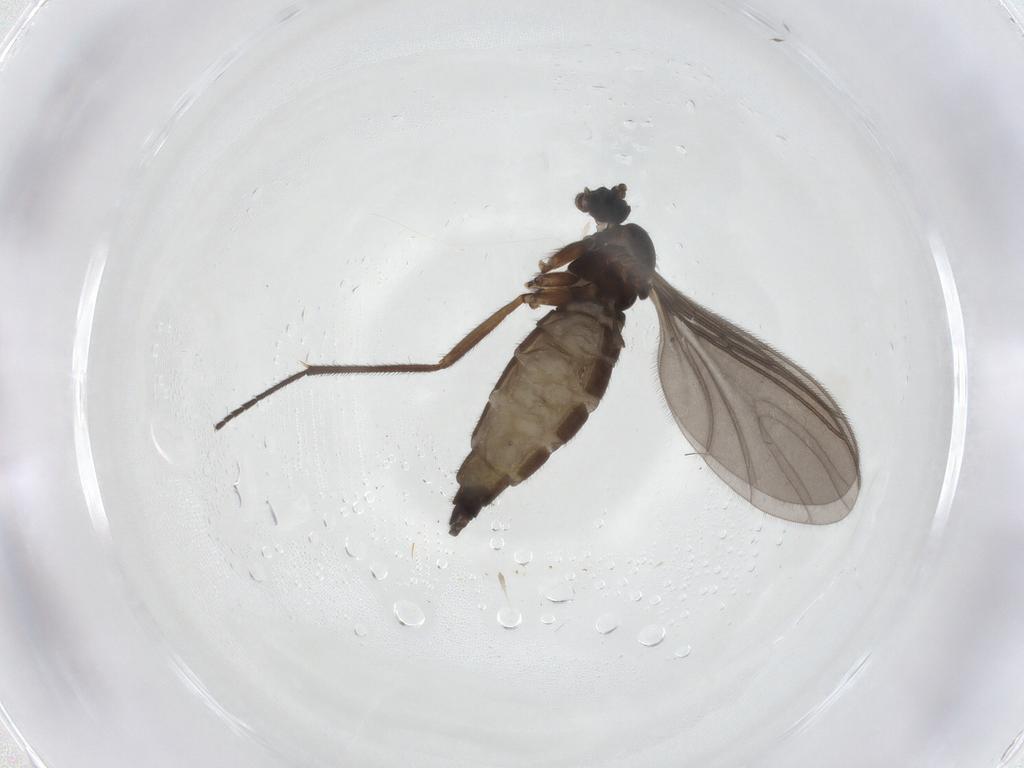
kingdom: Animalia
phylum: Arthropoda
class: Insecta
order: Diptera
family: Sciaridae
